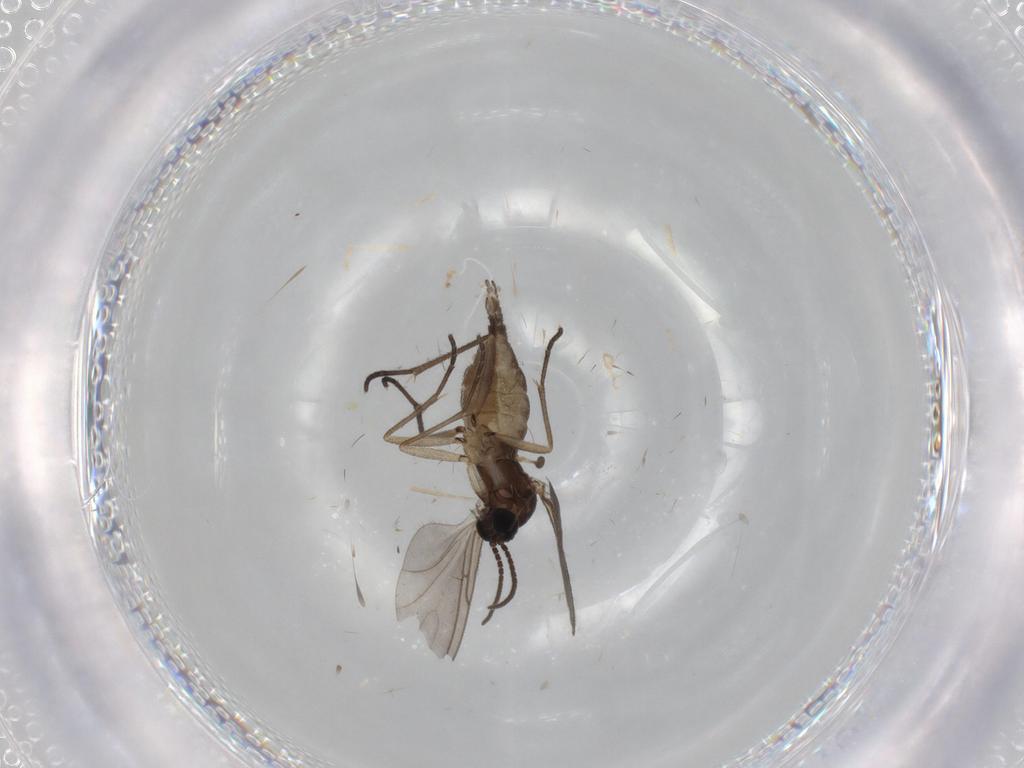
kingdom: Animalia
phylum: Arthropoda
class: Insecta
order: Diptera
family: Sciaridae
